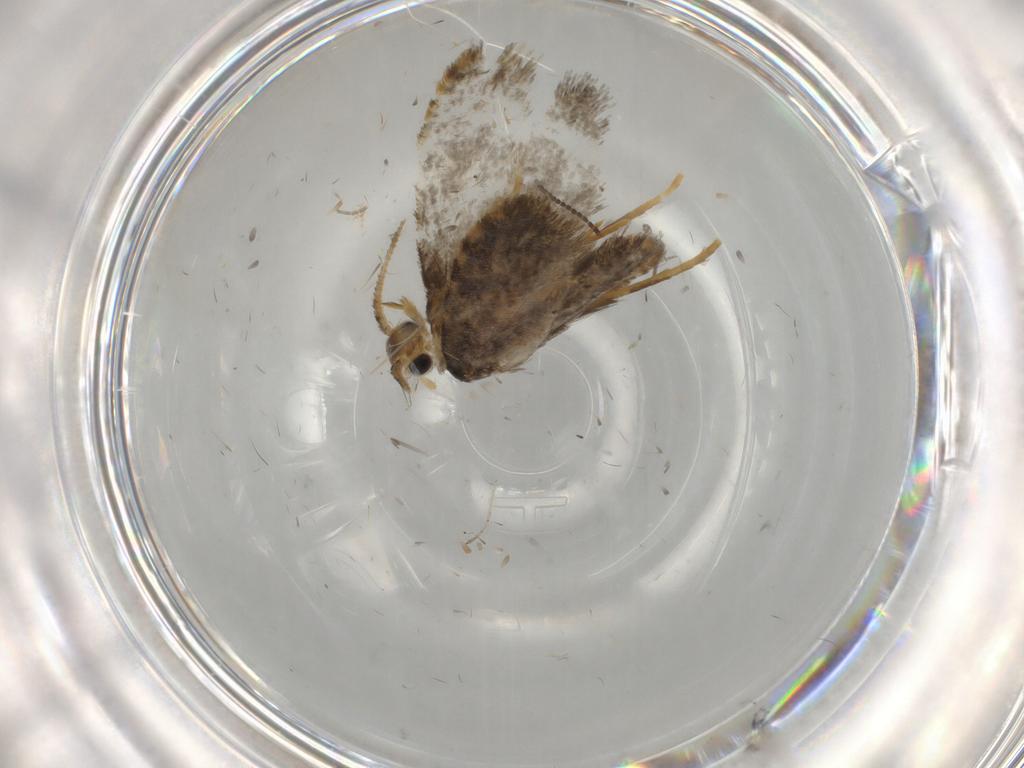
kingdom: Animalia
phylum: Arthropoda
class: Insecta
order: Lepidoptera
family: Psychidae
